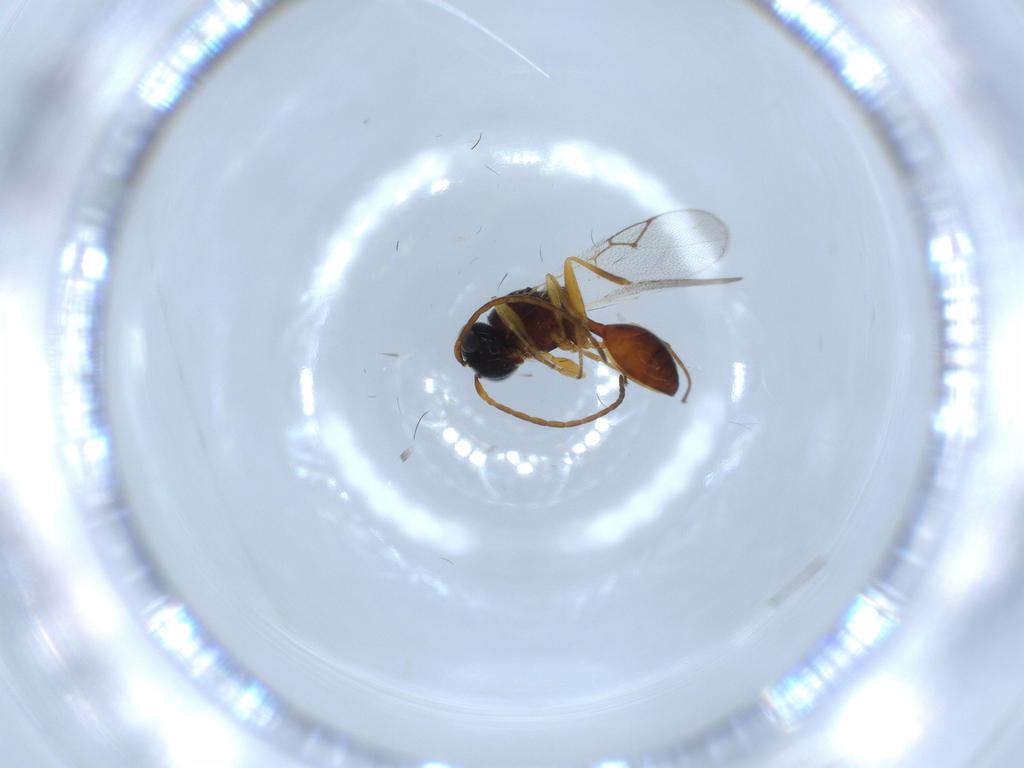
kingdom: Animalia
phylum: Arthropoda
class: Insecta
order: Hymenoptera
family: Figitidae
